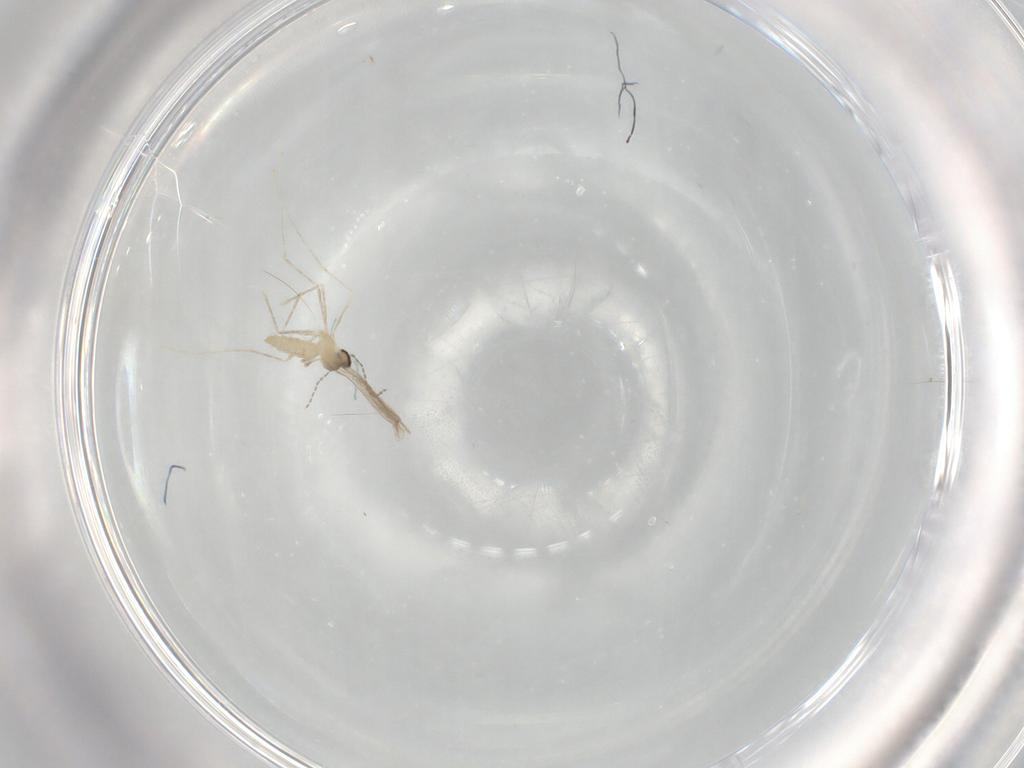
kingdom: Animalia
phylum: Arthropoda
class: Insecta
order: Diptera
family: Cecidomyiidae
